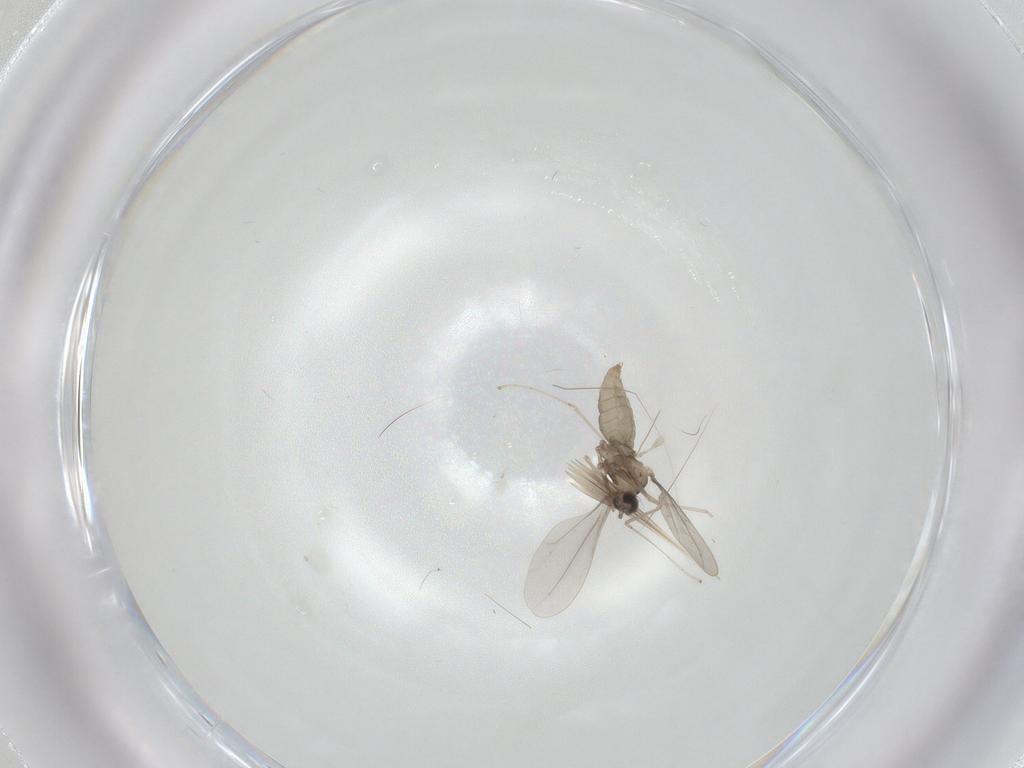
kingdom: Animalia
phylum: Arthropoda
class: Insecta
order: Diptera
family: Cecidomyiidae
